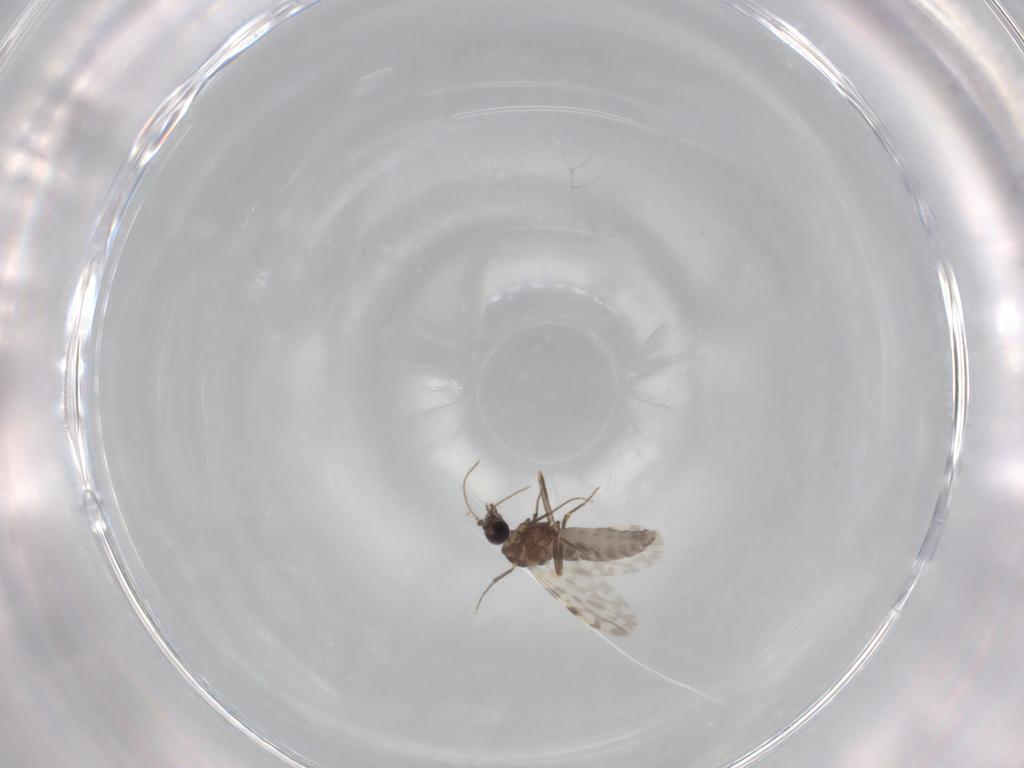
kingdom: Animalia
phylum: Arthropoda
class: Insecta
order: Diptera
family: Ceratopogonidae
